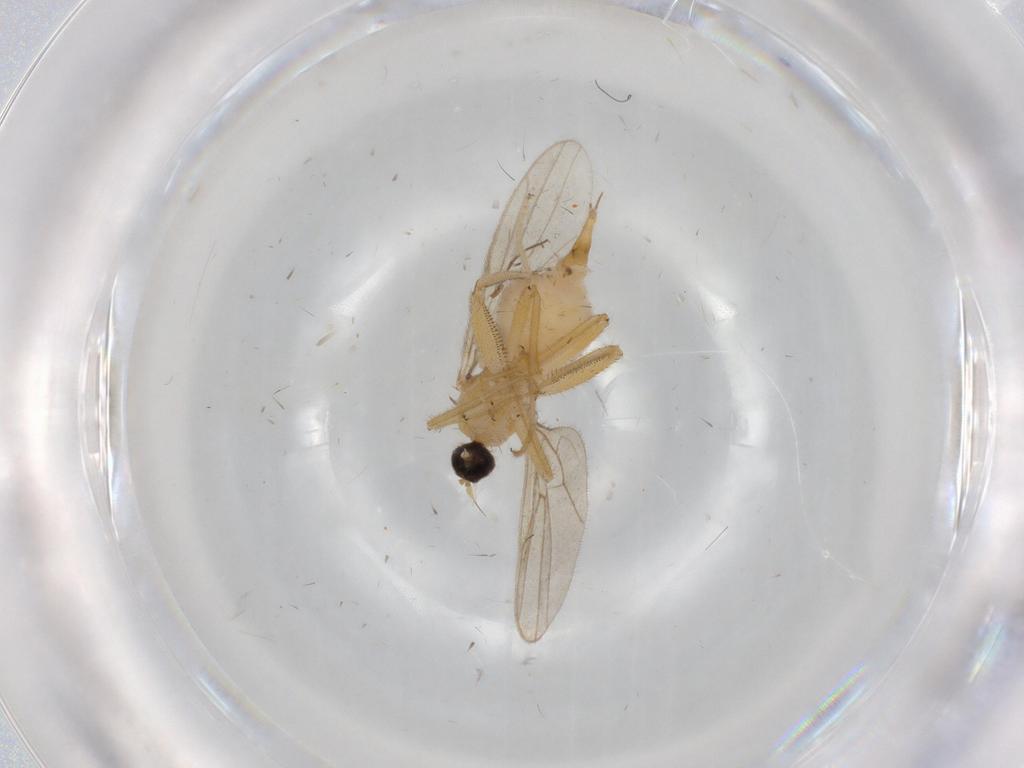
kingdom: Animalia
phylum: Arthropoda
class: Insecta
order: Diptera
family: Hybotidae
